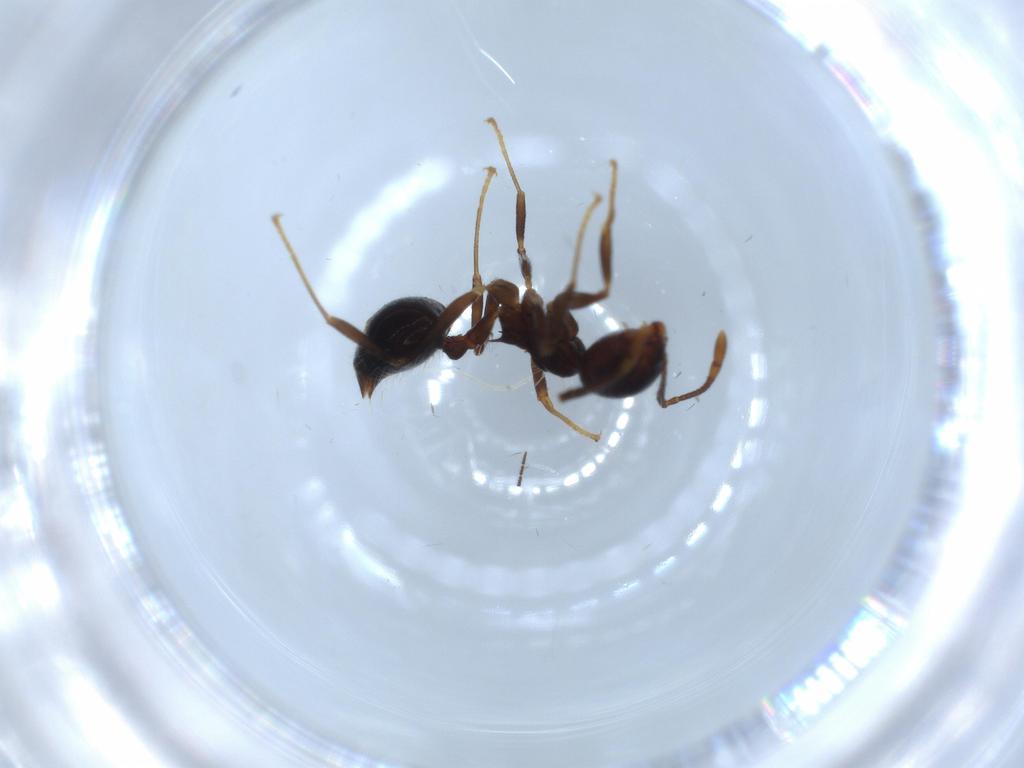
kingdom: Animalia
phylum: Arthropoda
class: Insecta
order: Hymenoptera
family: Formicidae
